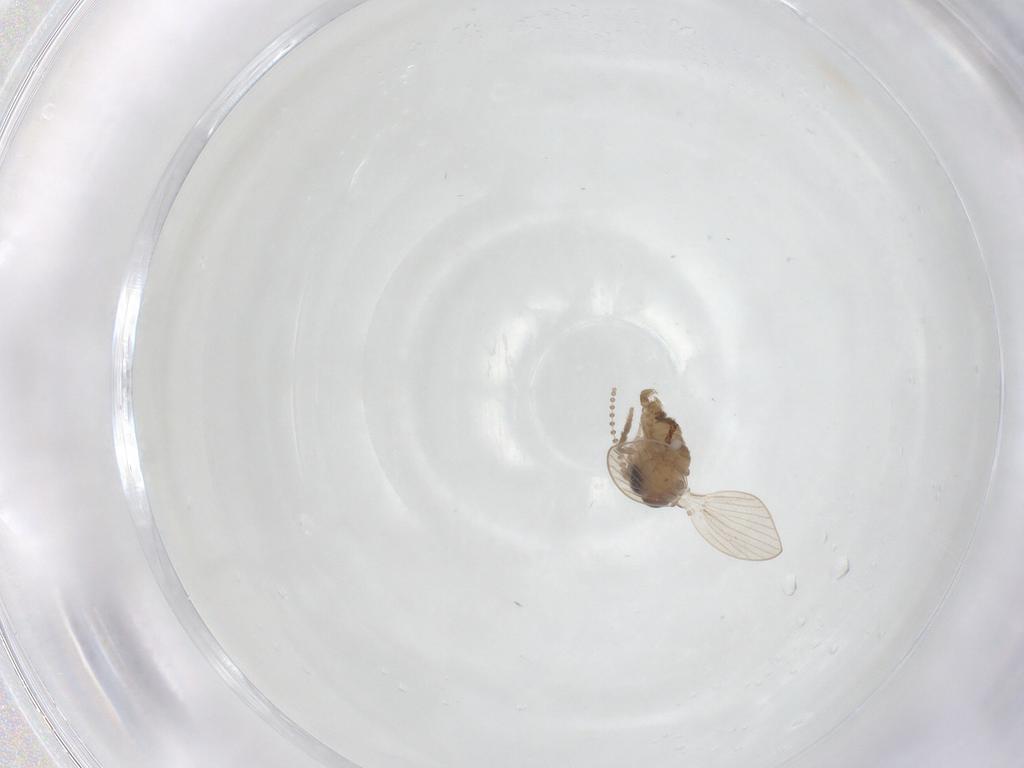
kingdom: Animalia
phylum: Arthropoda
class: Insecta
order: Diptera
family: Psychodidae
